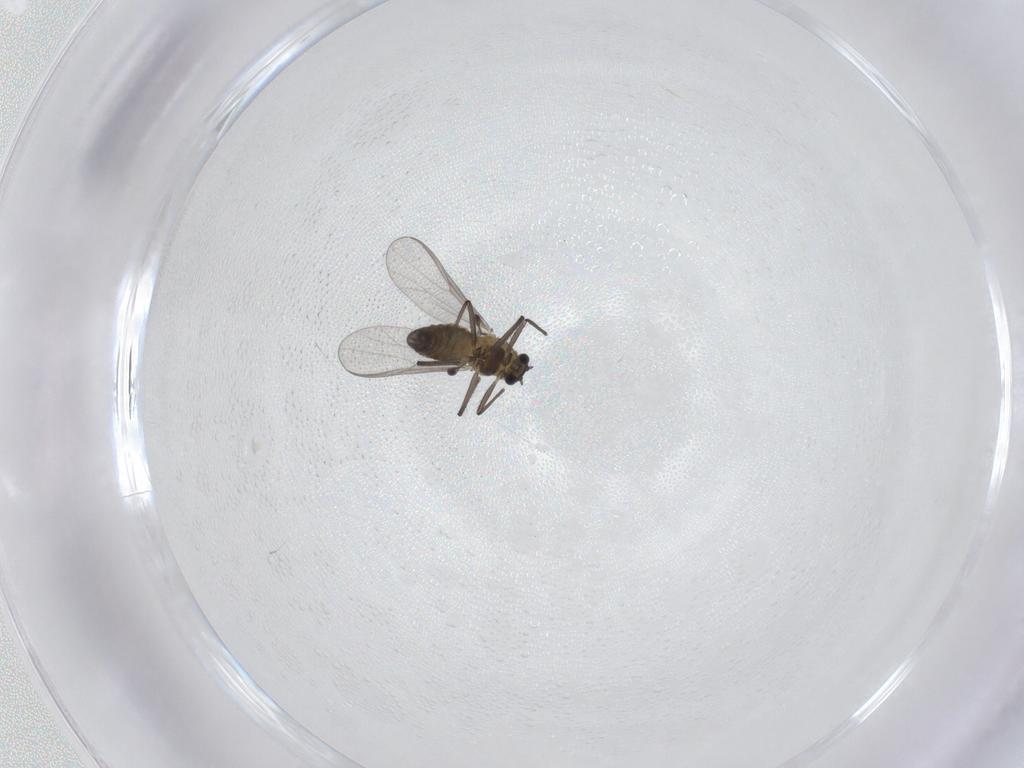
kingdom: Animalia
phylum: Arthropoda
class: Insecta
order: Diptera
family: Chironomidae
